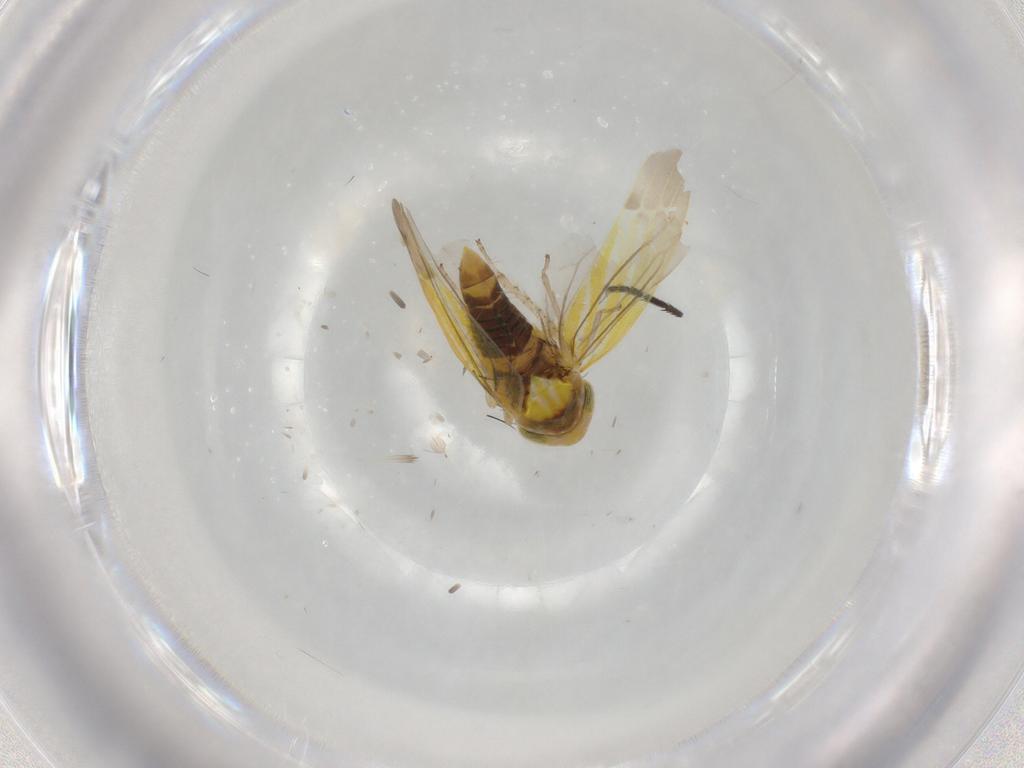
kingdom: Animalia
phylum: Arthropoda
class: Insecta
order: Hemiptera
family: Cicadellidae
